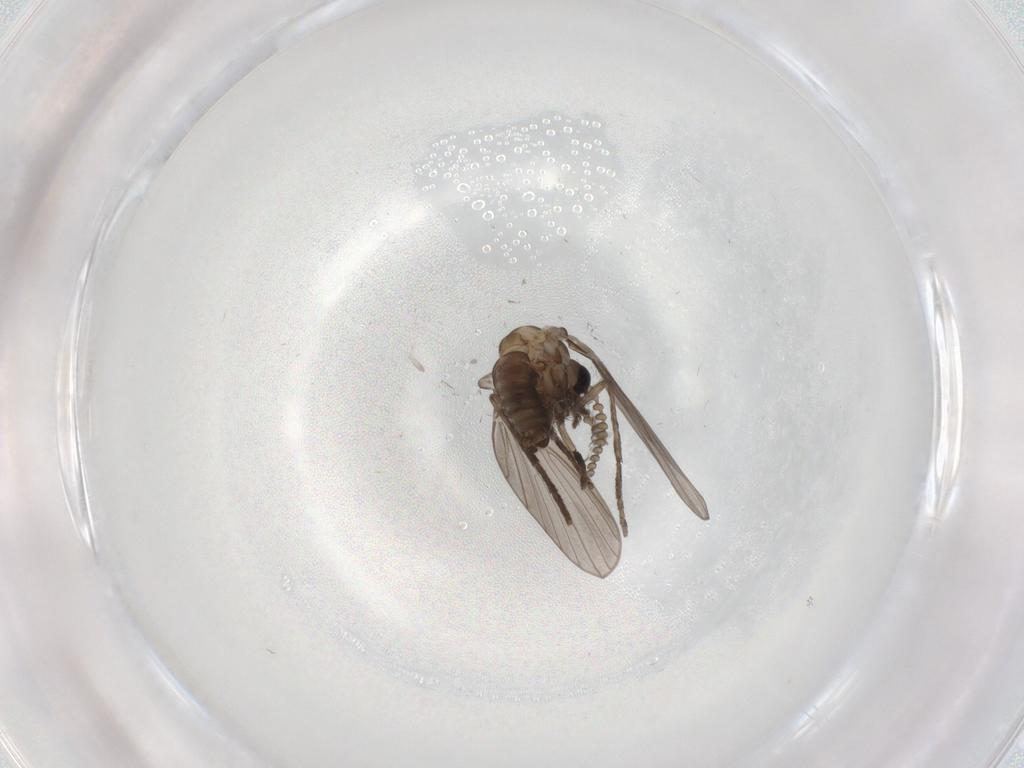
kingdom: Animalia
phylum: Arthropoda
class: Insecta
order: Diptera
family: Psychodidae
